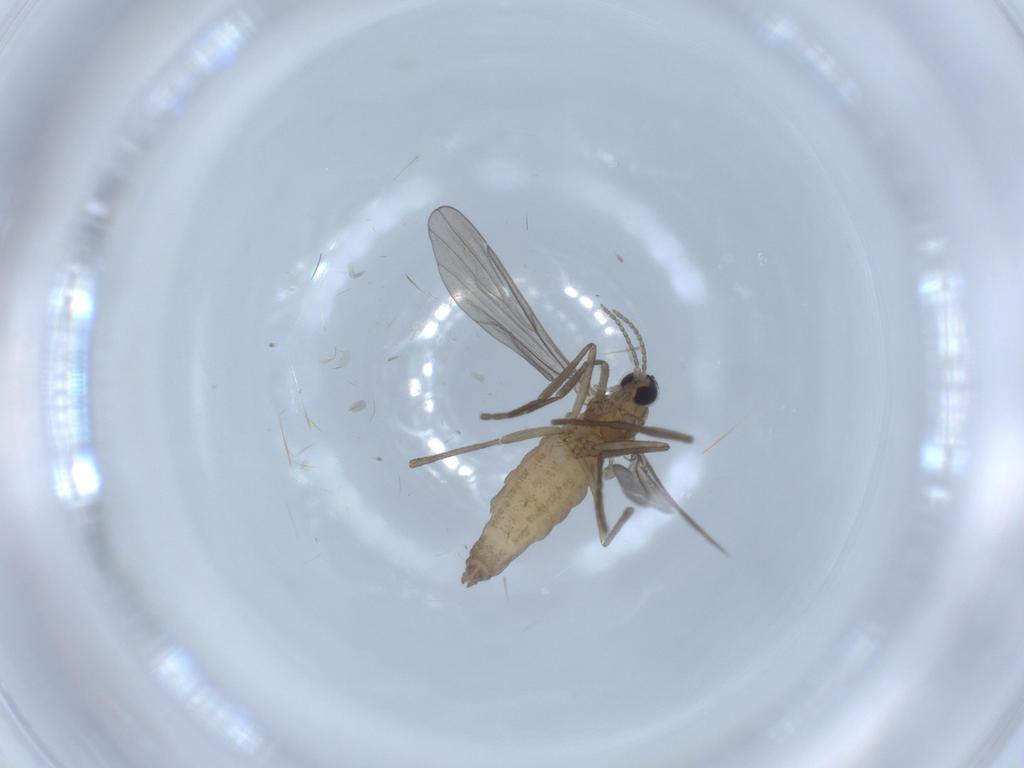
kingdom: Animalia
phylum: Arthropoda
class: Insecta
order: Diptera
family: Cecidomyiidae
